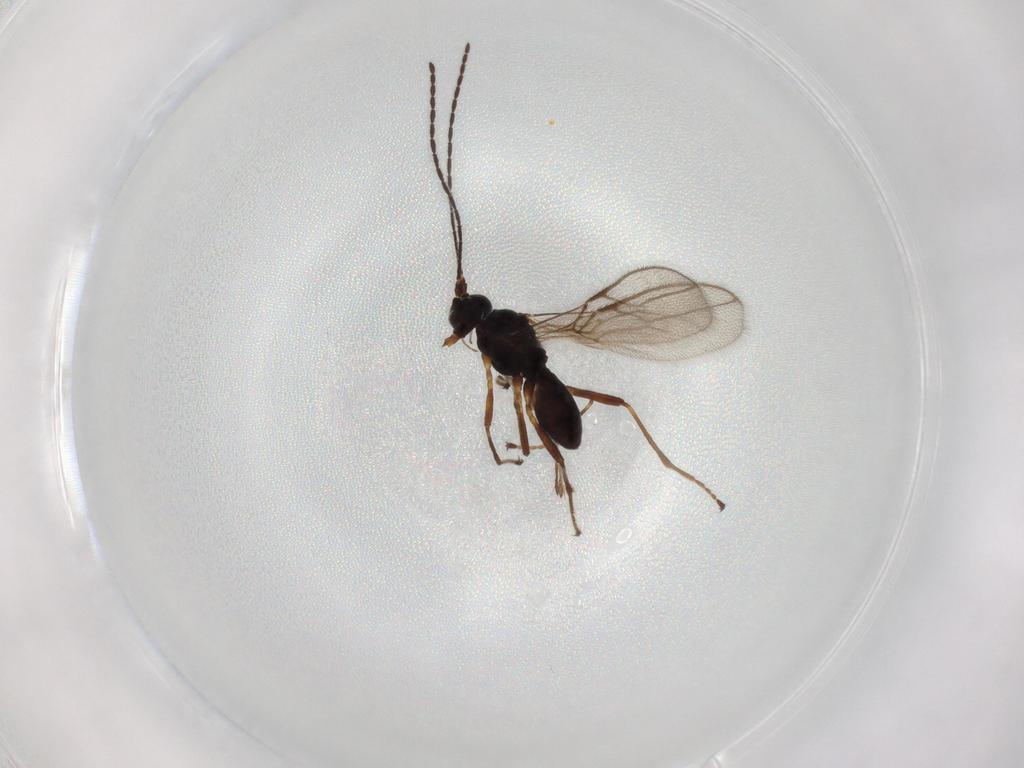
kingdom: Animalia
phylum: Arthropoda
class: Insecta
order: Hymenoptera
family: Braconidae
